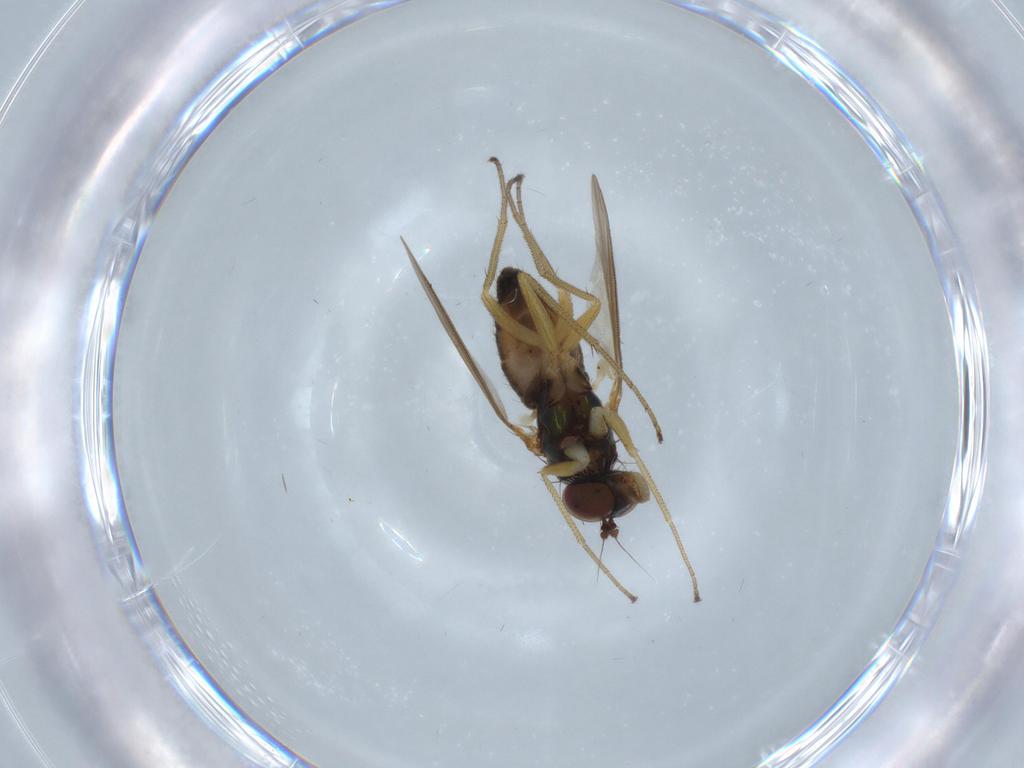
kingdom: Animalia
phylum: Arthropoda
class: Insecta
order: Diptera
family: Dolichopodidae
